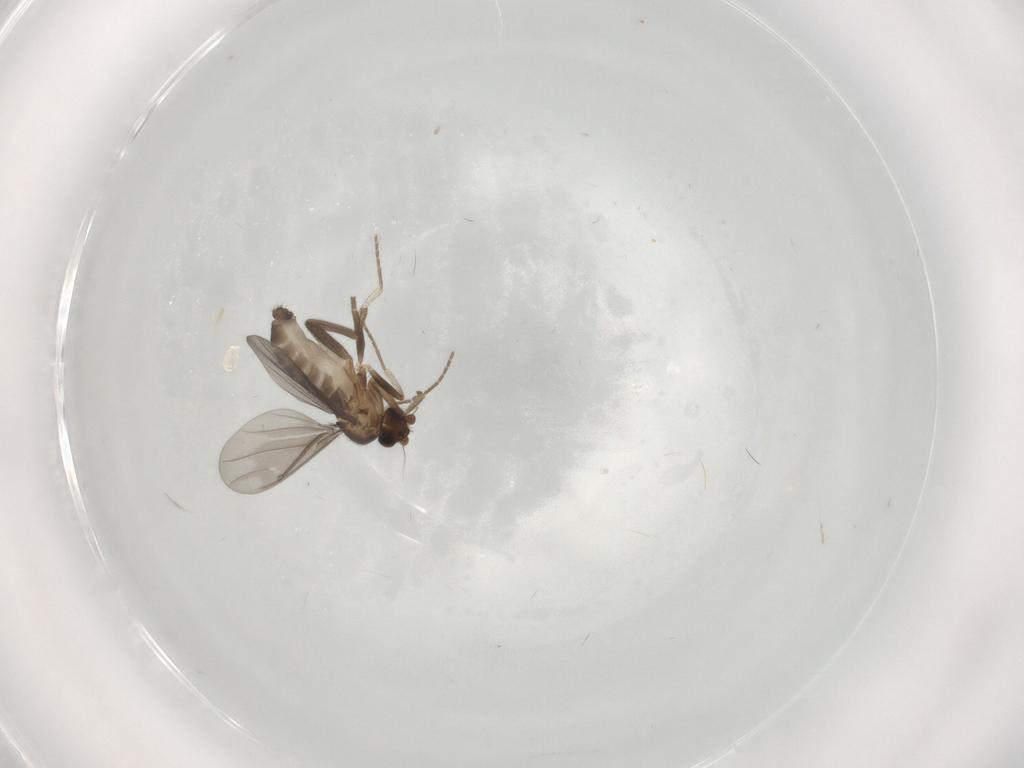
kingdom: Animalia
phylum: Arthropoda
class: Insecta
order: Diptera
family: Phoridae
